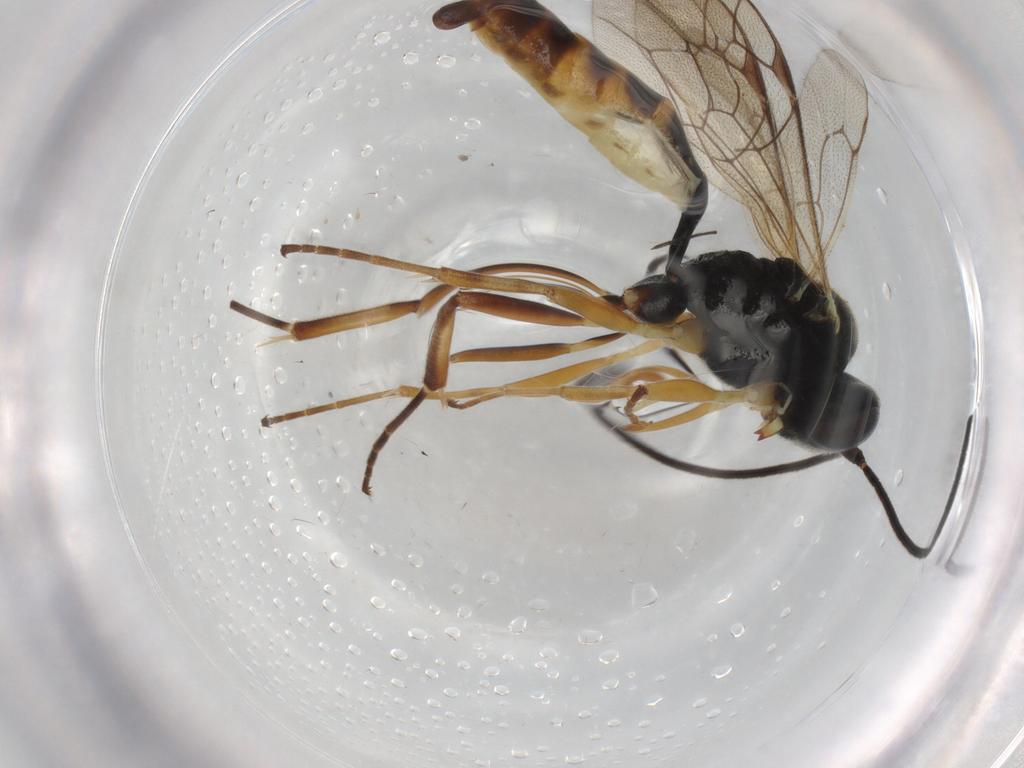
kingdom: Animalia
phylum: Arthropoda
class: Insecta
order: Hymenoptera
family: Ichneumonidae
